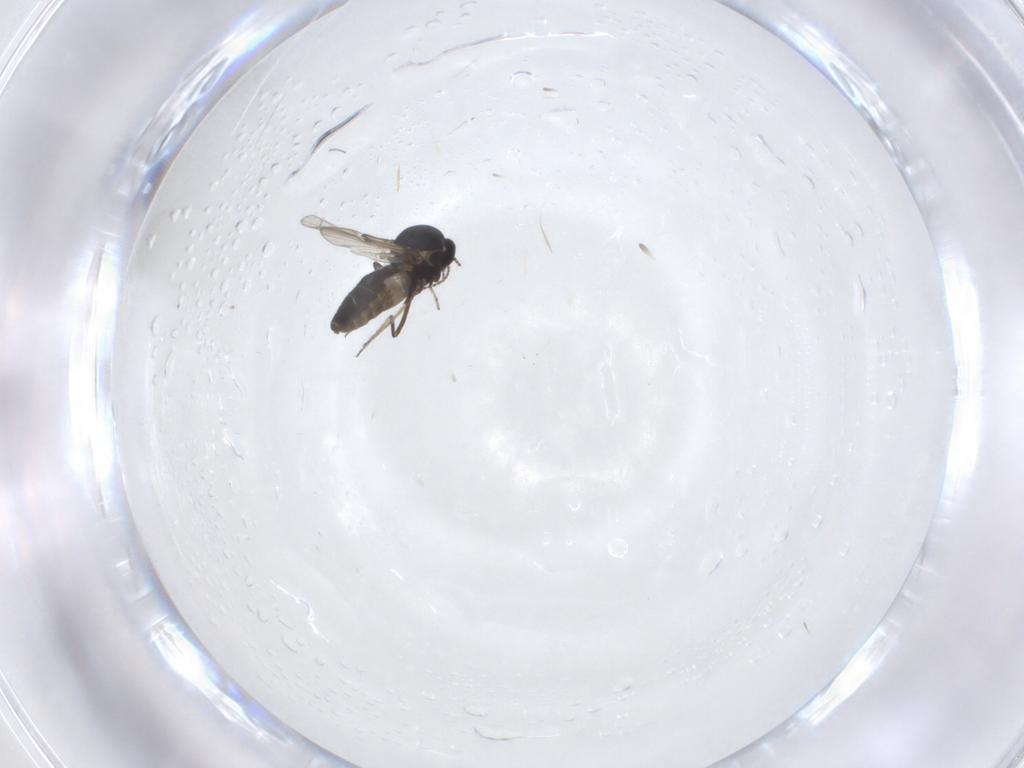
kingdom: Animalia
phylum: Arthropoda
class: Insecta
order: Diptera
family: Ceratopogonidae
